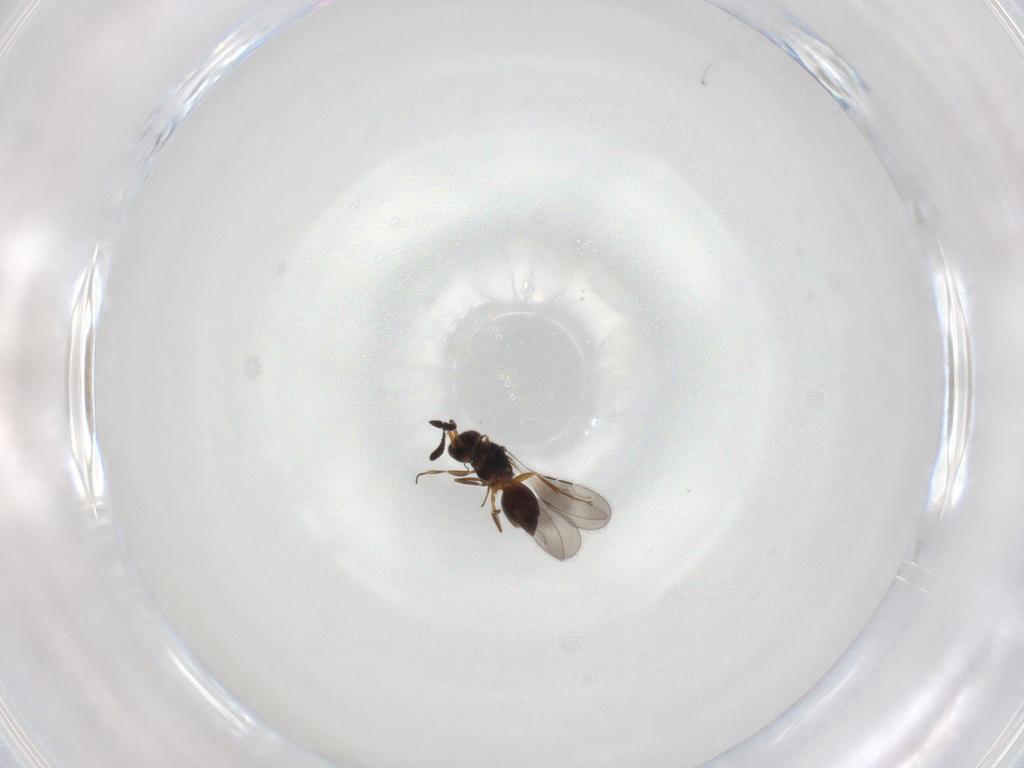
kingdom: Animalia
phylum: Arthropoda
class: Insecta
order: Hymenoptera
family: Ceraphronidae
